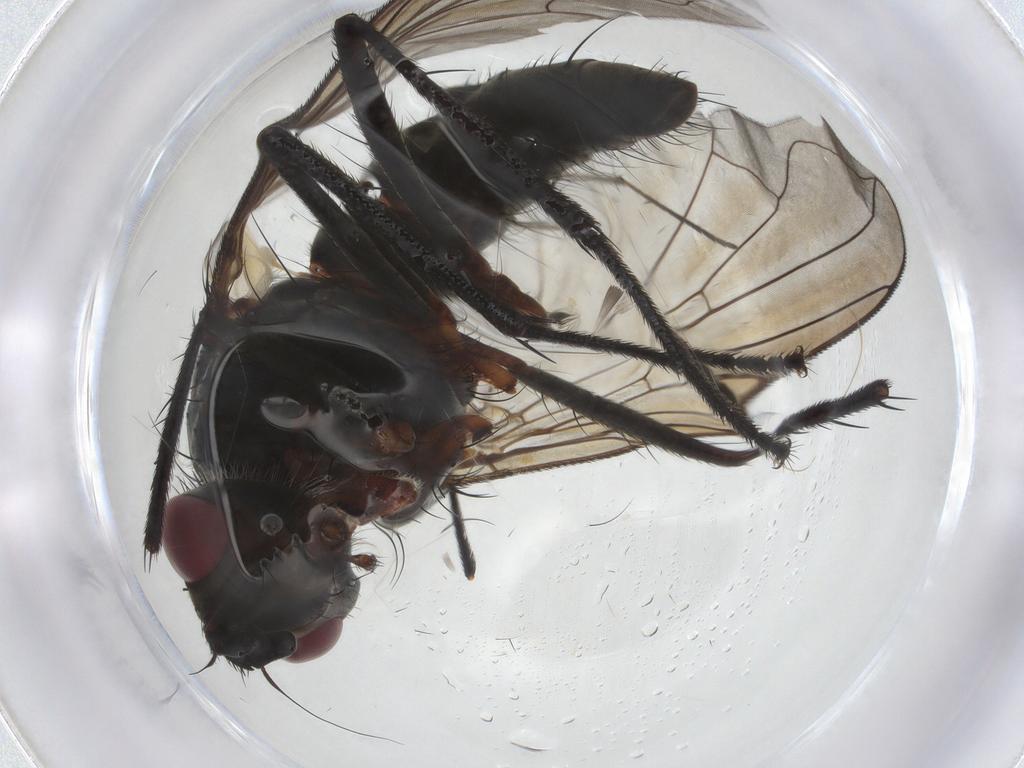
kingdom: Animalia
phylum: Arthropoda
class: Insecta
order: Diptera
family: Tachinidae
